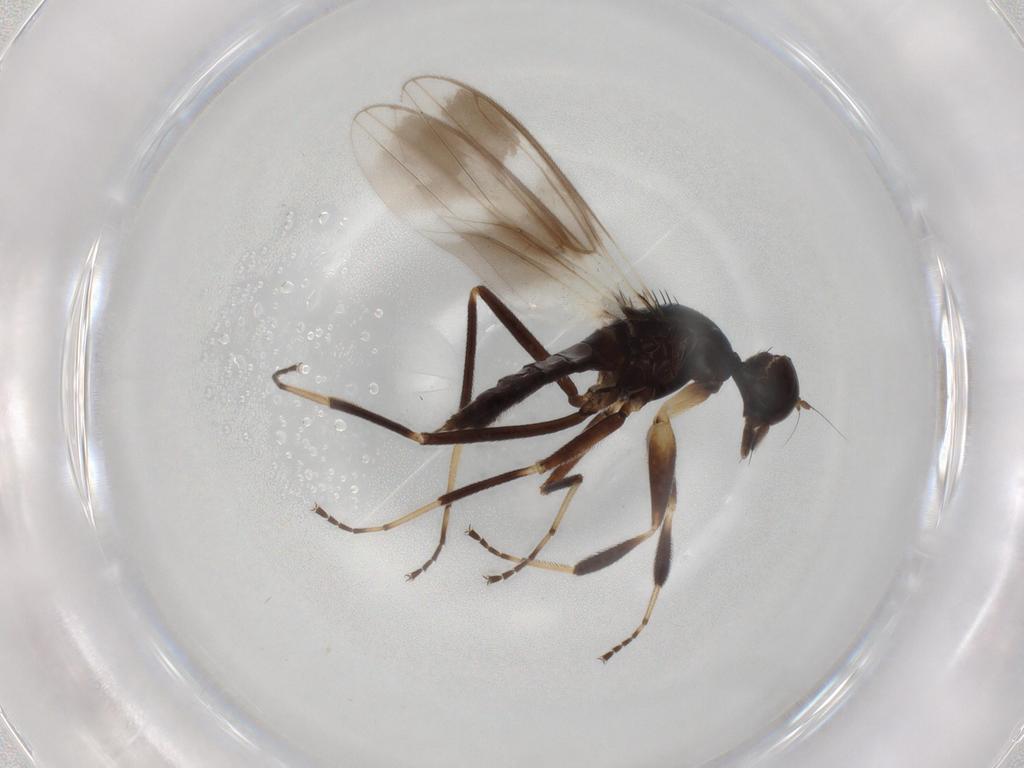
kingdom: Animalia
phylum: Arthropoda
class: Insecta
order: Diptera
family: Hybotidae
